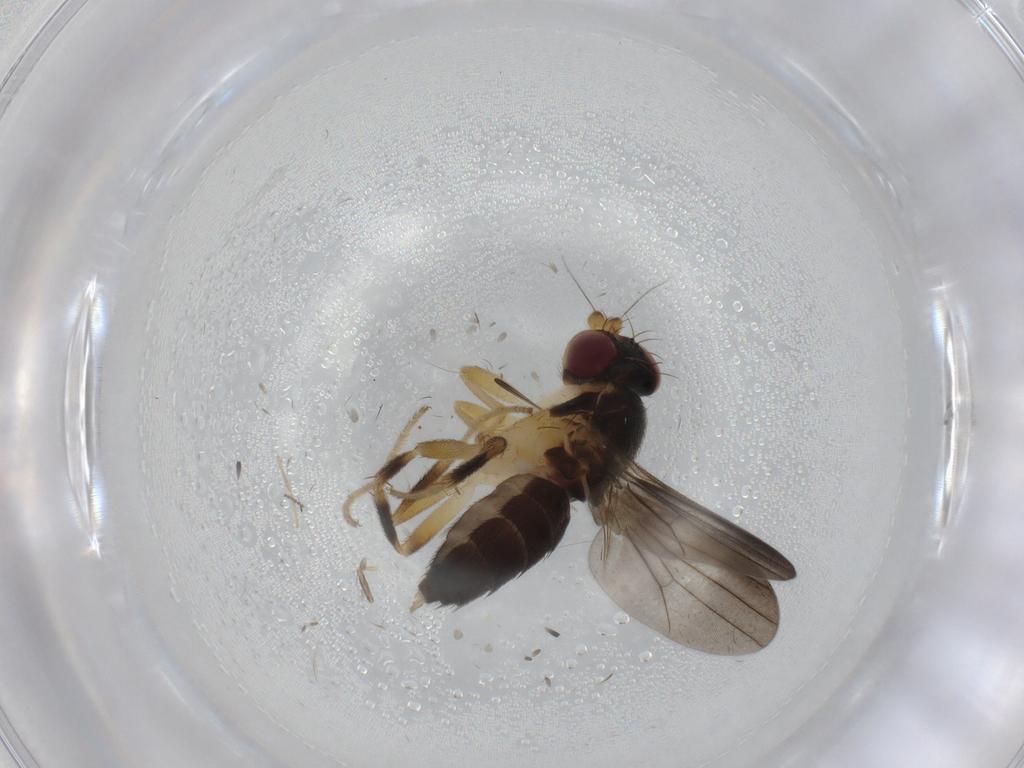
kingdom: Animalia
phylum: Arthropoda
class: Insecta
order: Diptera
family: Clusiidae
